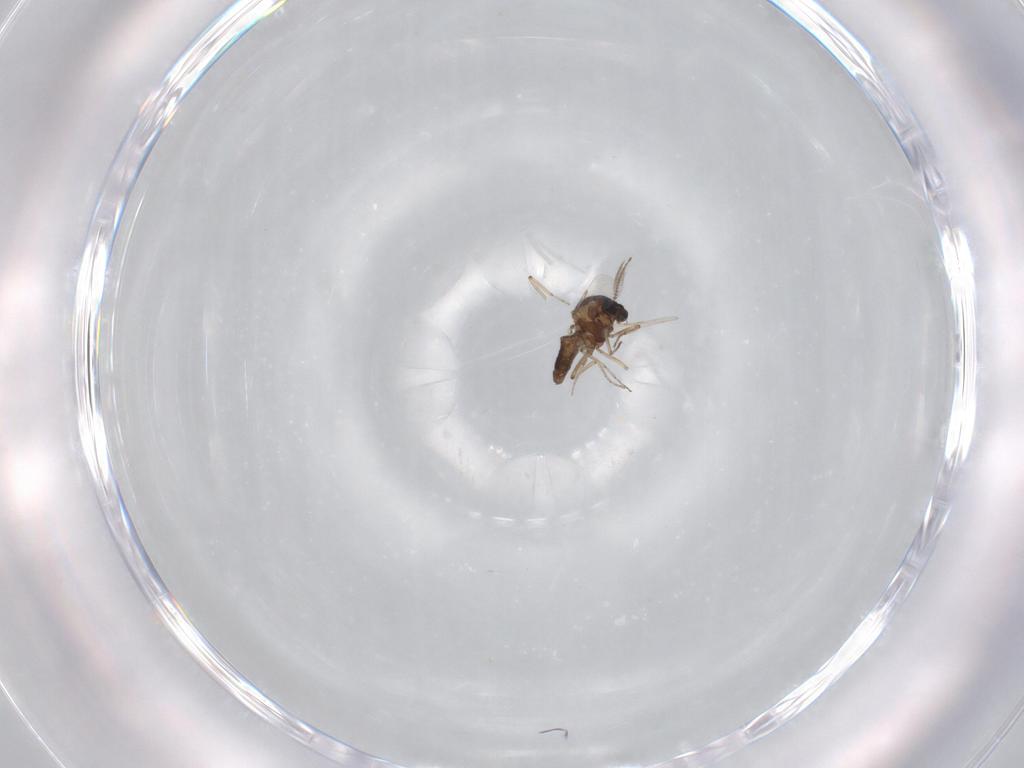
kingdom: Animalia
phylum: Arthropoda
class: Insecta
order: Diptera
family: Ceratopogonidae
